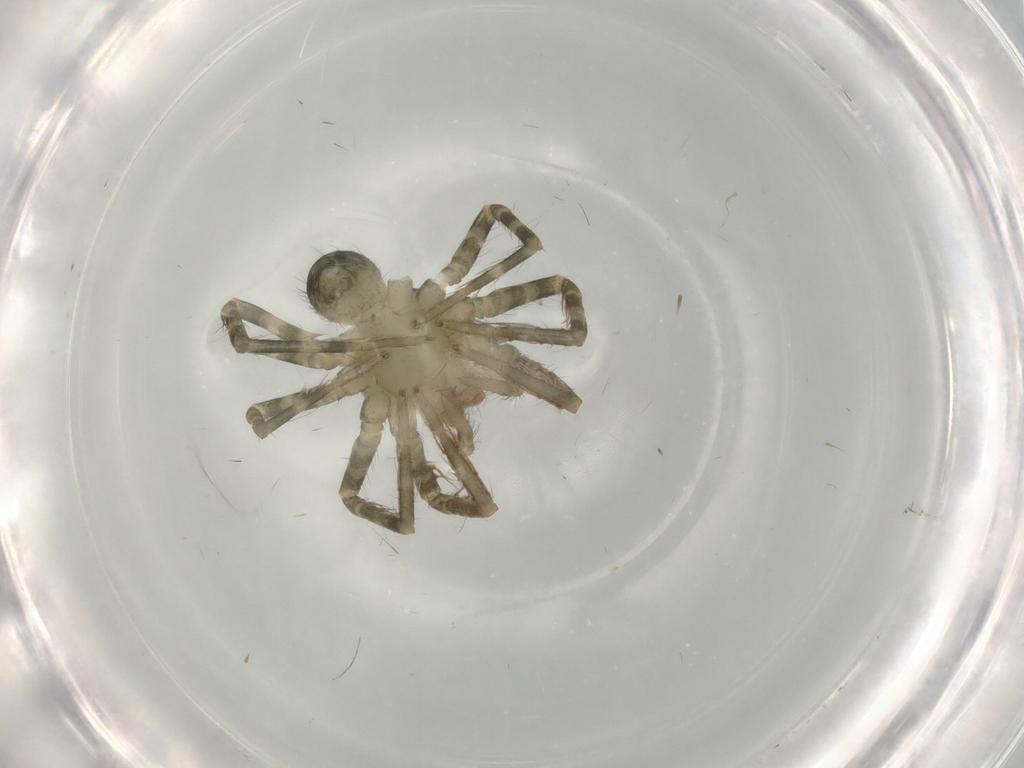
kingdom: Animalia
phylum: Arthropoda
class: Arachnida
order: Araneae
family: Ctenidae
